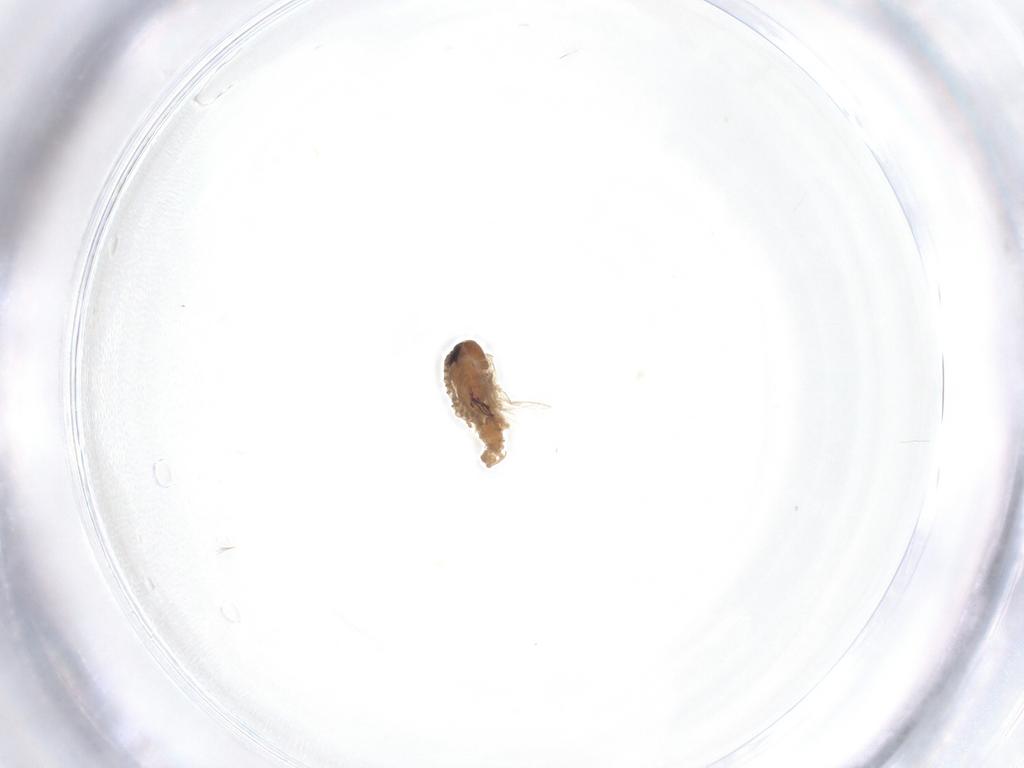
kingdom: Animalia
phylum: Arthropoda
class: Insecta
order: Diptera
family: Psychodidae
